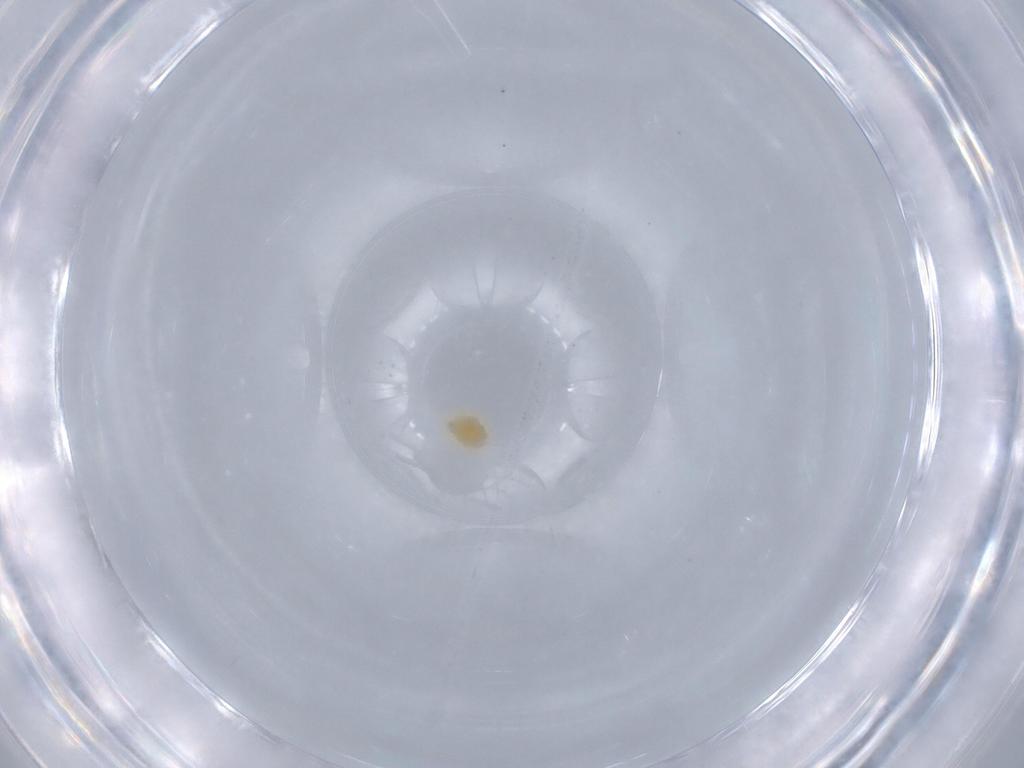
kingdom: Animalia
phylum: Arthropoda
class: Arachnida
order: Trombidiformes
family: Tetranychidae
